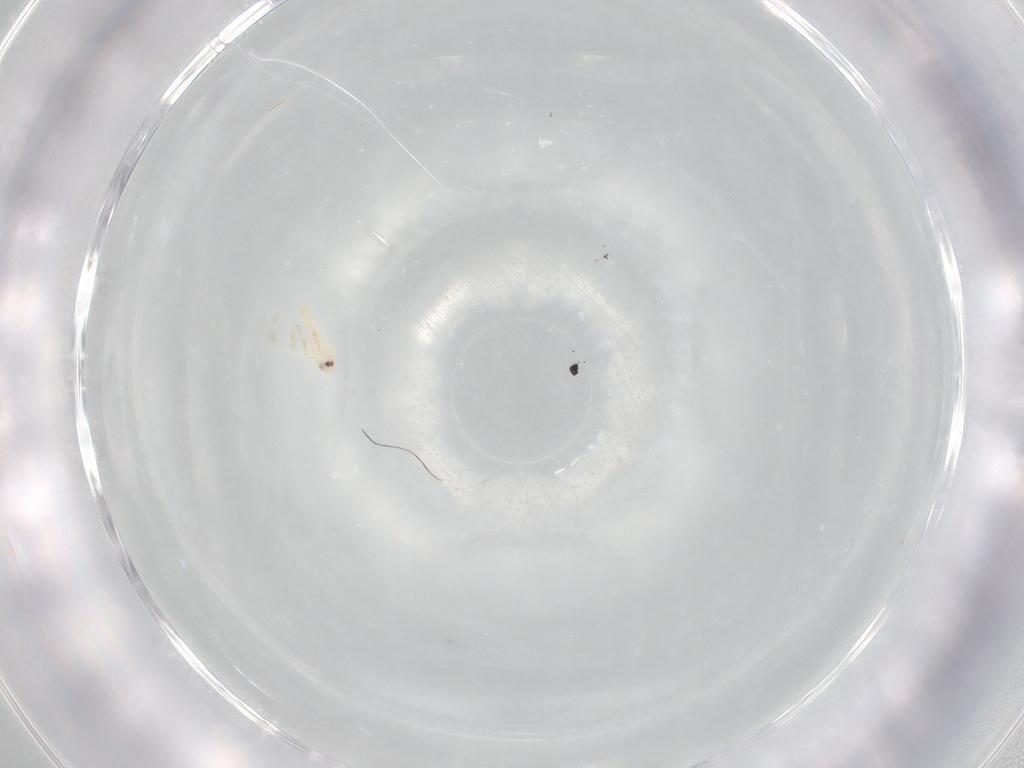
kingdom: Animalia
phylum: Arthropoda
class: Insecta
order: Hemiptera
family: Aleyrodidae
